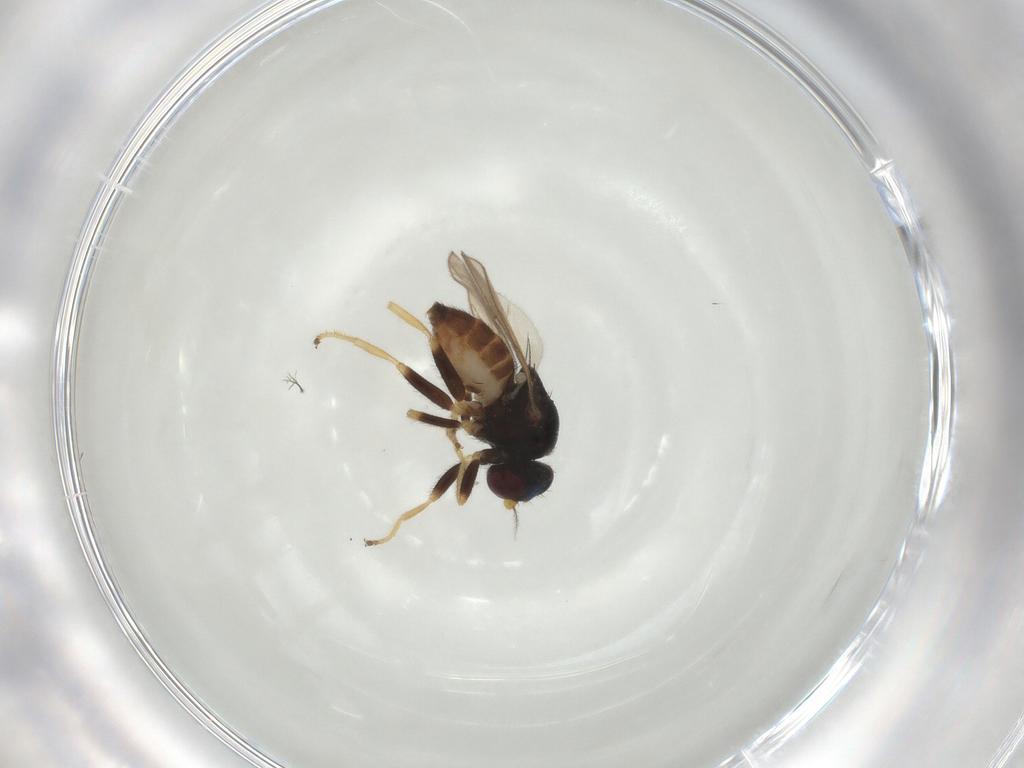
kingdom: Animalia
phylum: Arthropoda
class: Insecta
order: Diptera
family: Chloropidae
